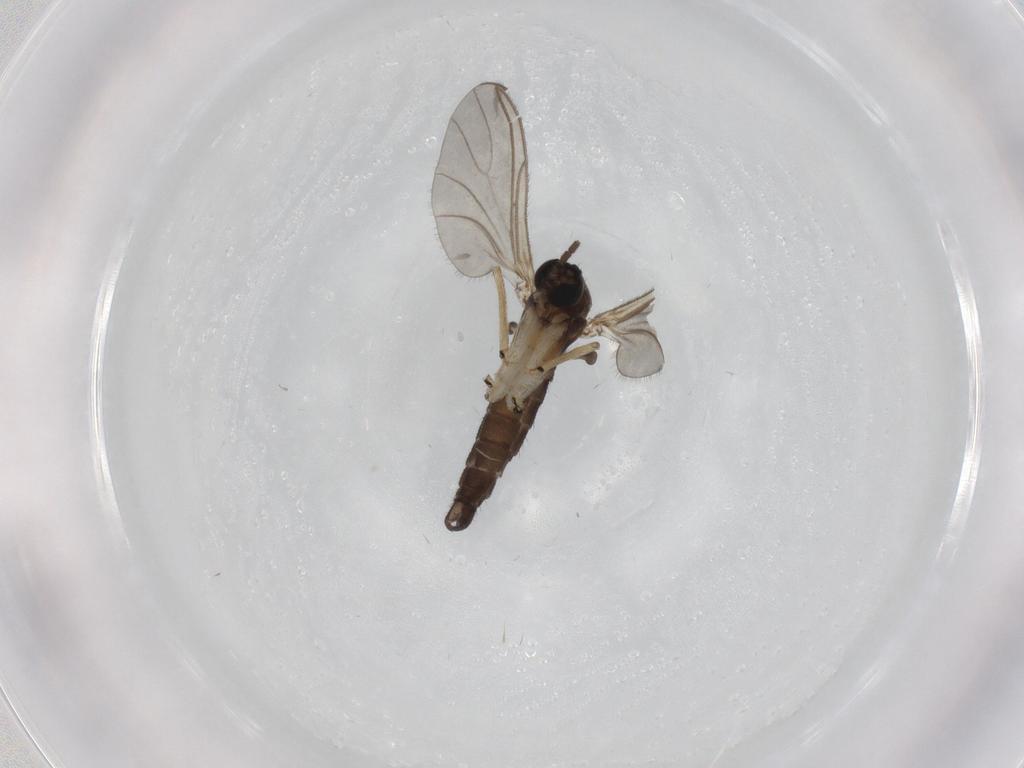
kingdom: Animalia
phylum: Arthropoda
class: Insecta
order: Diptera
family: Sciaridae
